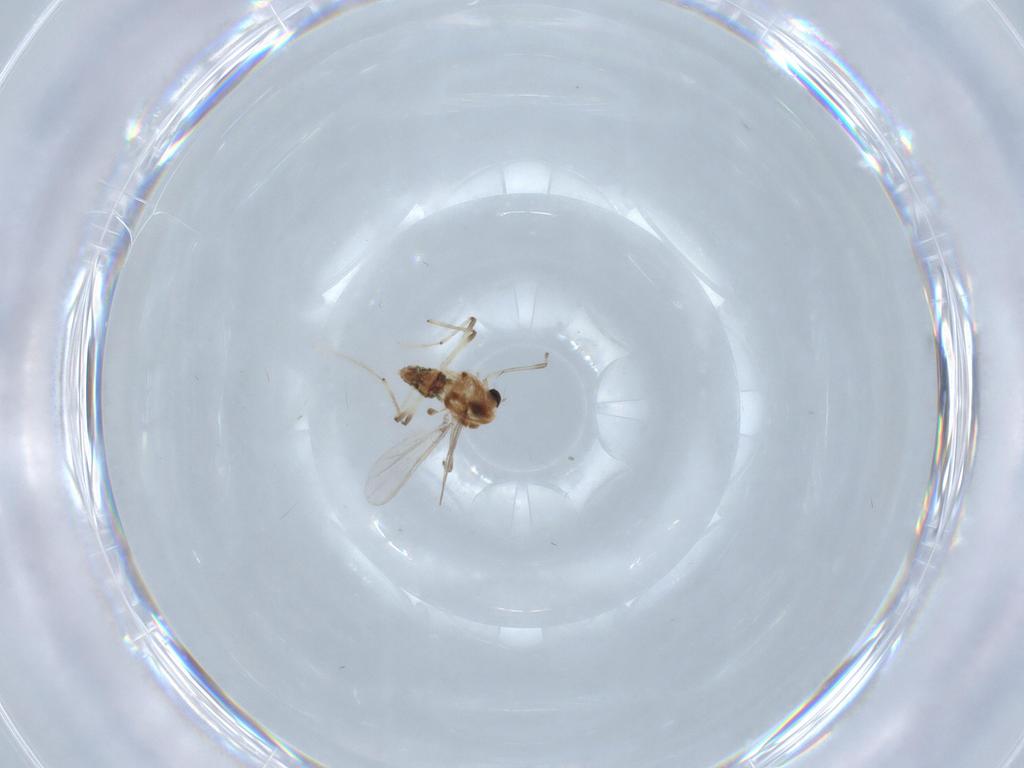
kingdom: Animalia
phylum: Arthropoda
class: Insecta
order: Diptera
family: Chironomidae
